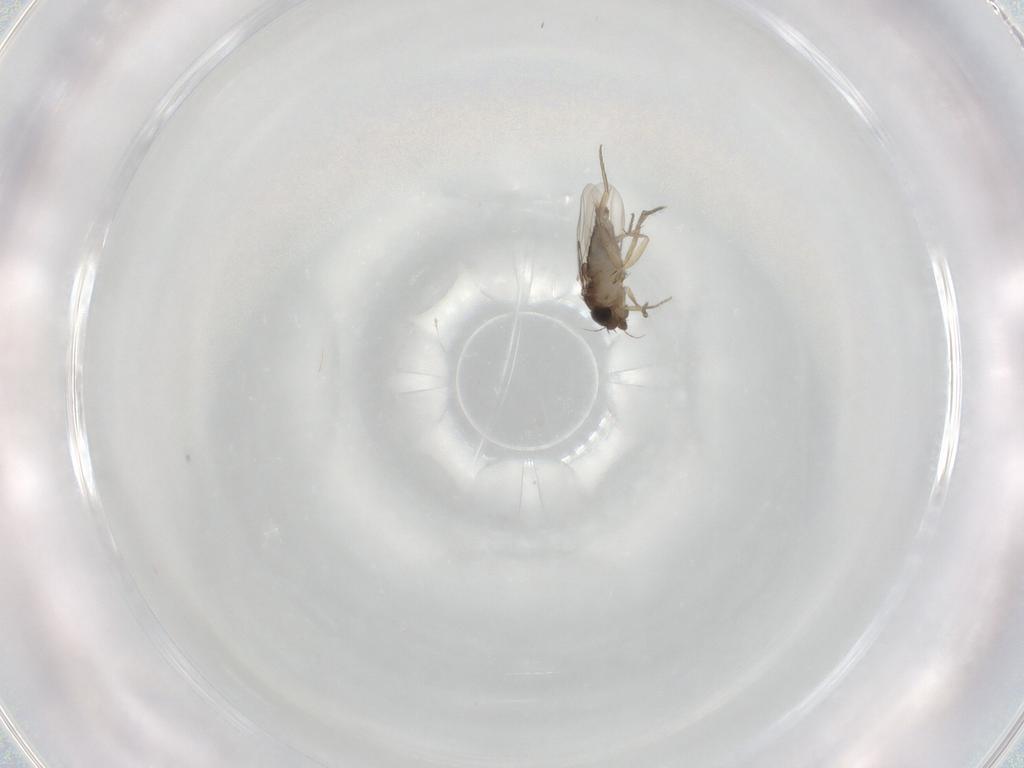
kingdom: Animalia
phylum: Arthropoda
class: Insecta
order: Diptera
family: Phoridae
